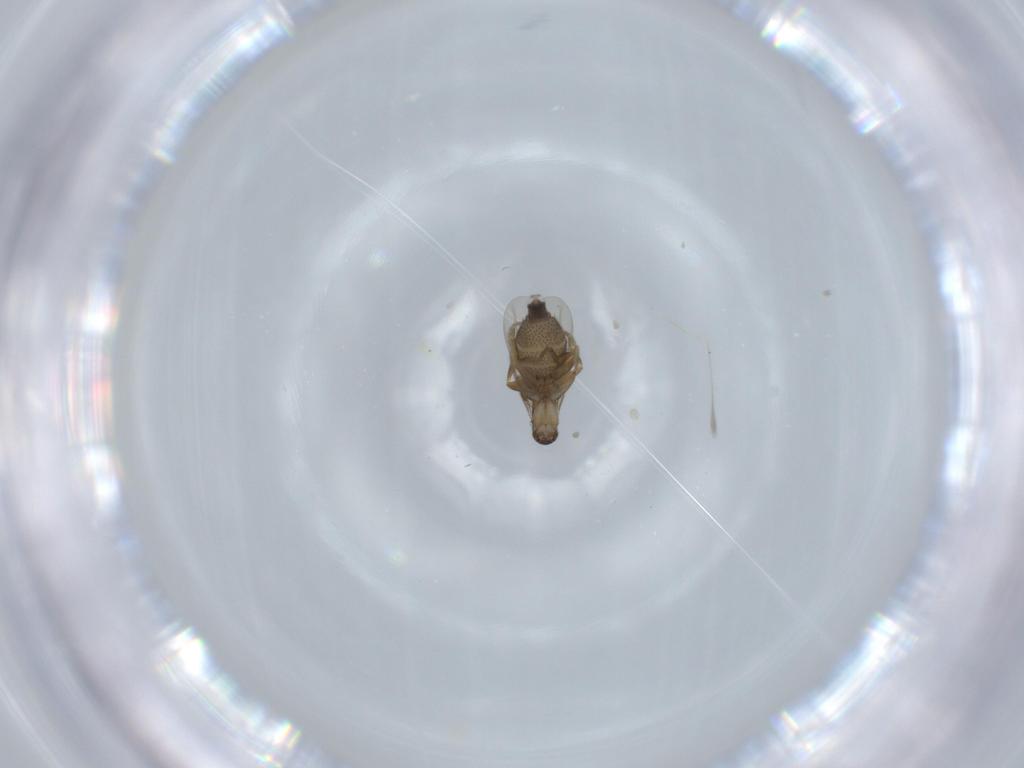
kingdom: Animalia
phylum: Arthropoda
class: Insecta
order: Diptera
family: Phoridae
